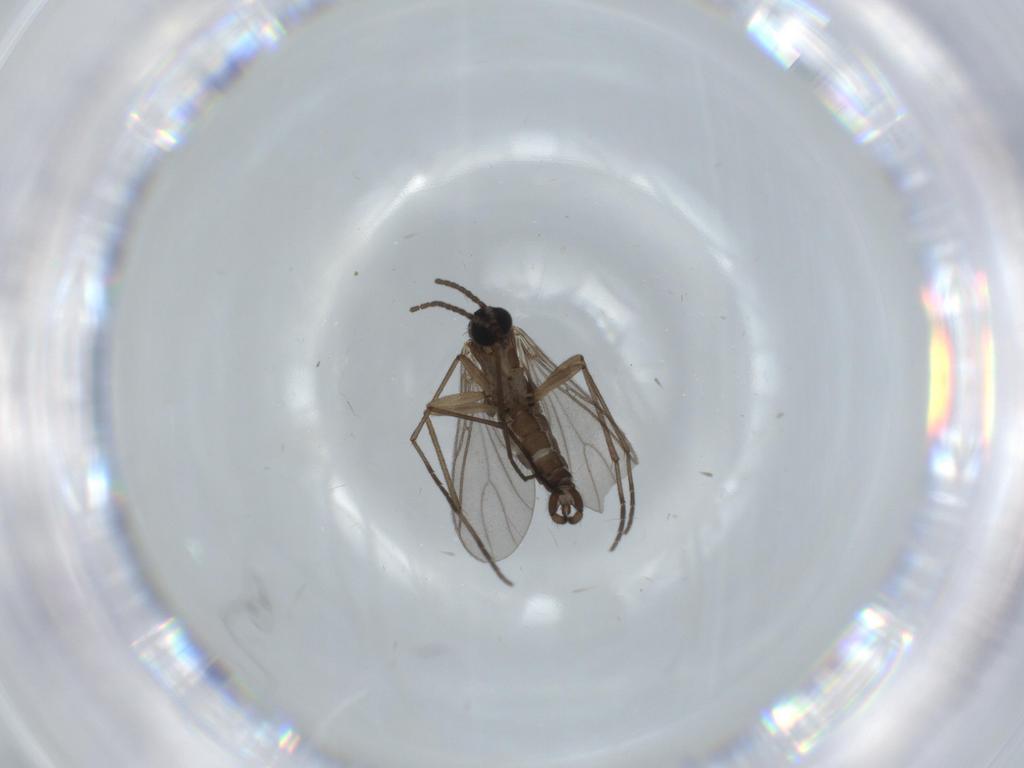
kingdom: Animalia
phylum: Arthropoda
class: Insecta
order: Diptera
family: Sciaridae
